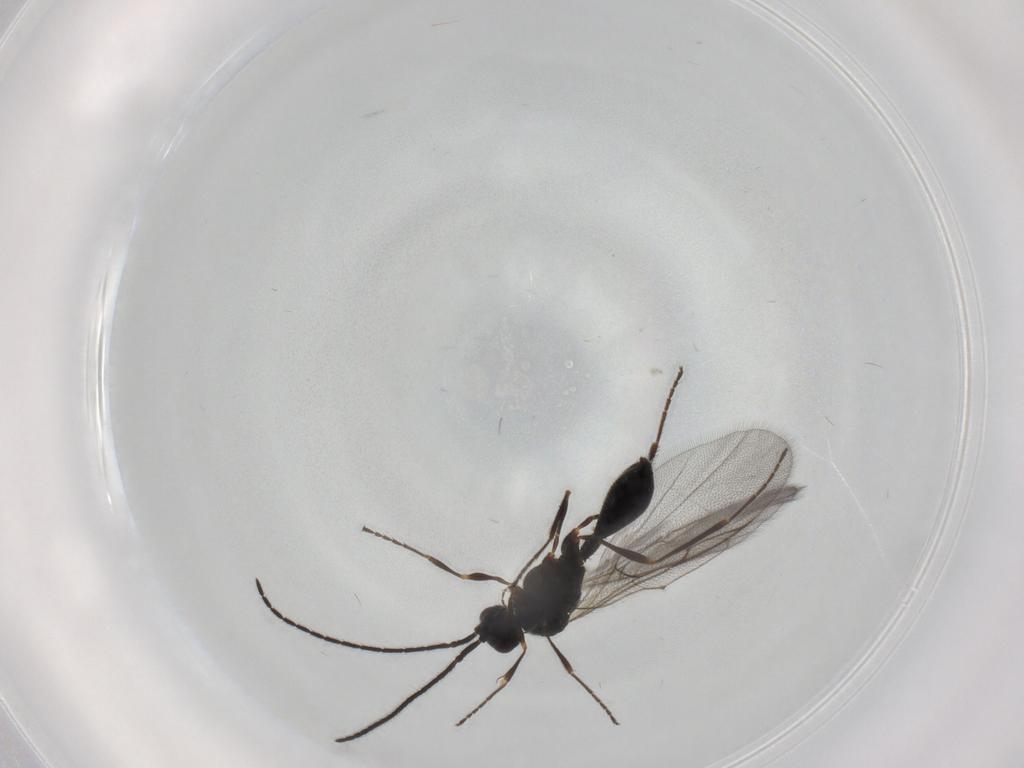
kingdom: Animalia
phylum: Arthropoda
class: Insecta
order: Hymenoptera
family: Diapriidae
